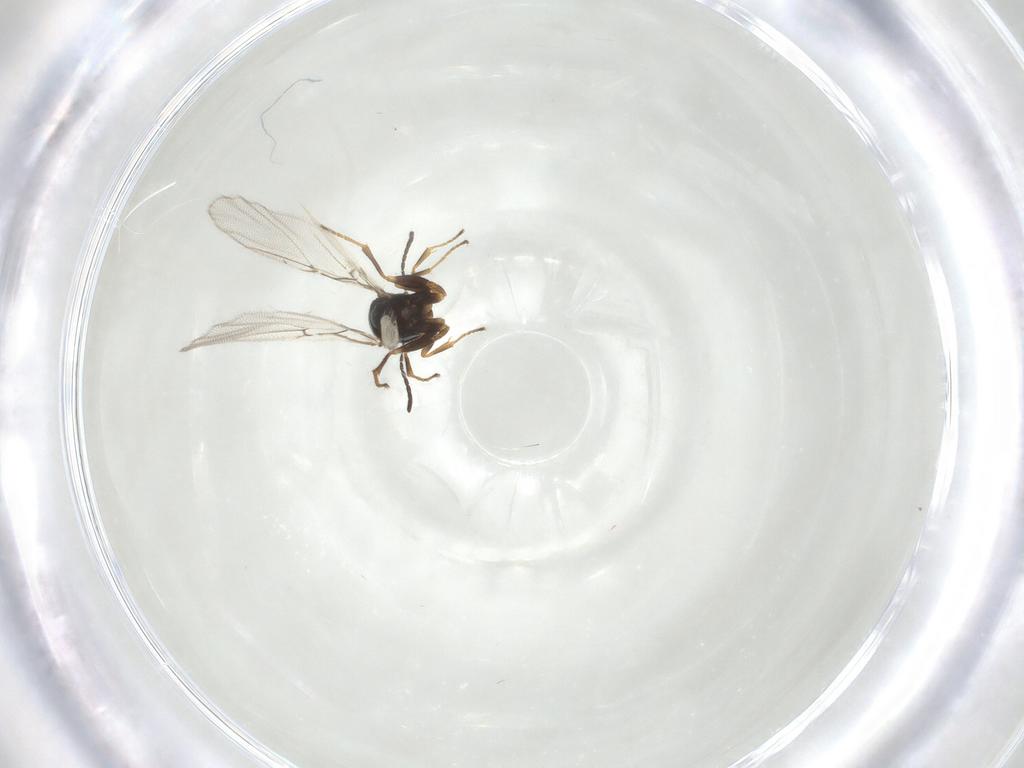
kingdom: Animalia
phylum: Arthropoda
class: Insecta
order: Hymenoptera
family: Cynipidae
